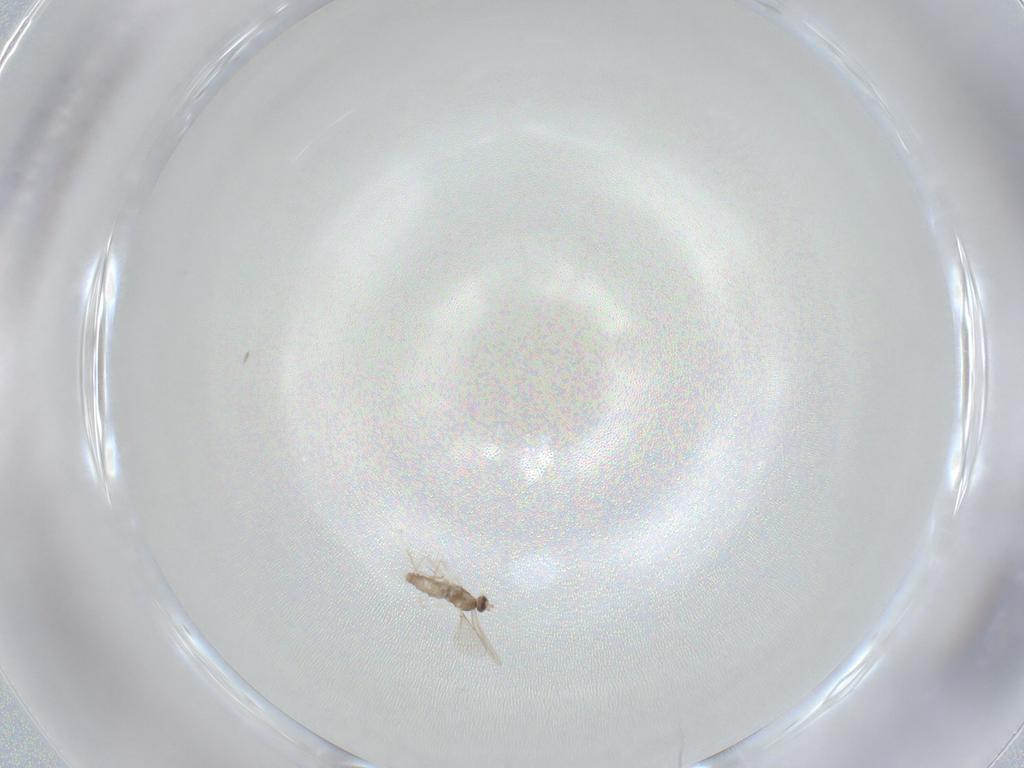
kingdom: Animalia
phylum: Arthropoda
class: Insecta
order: Diptera
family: Cecidomyiidae
